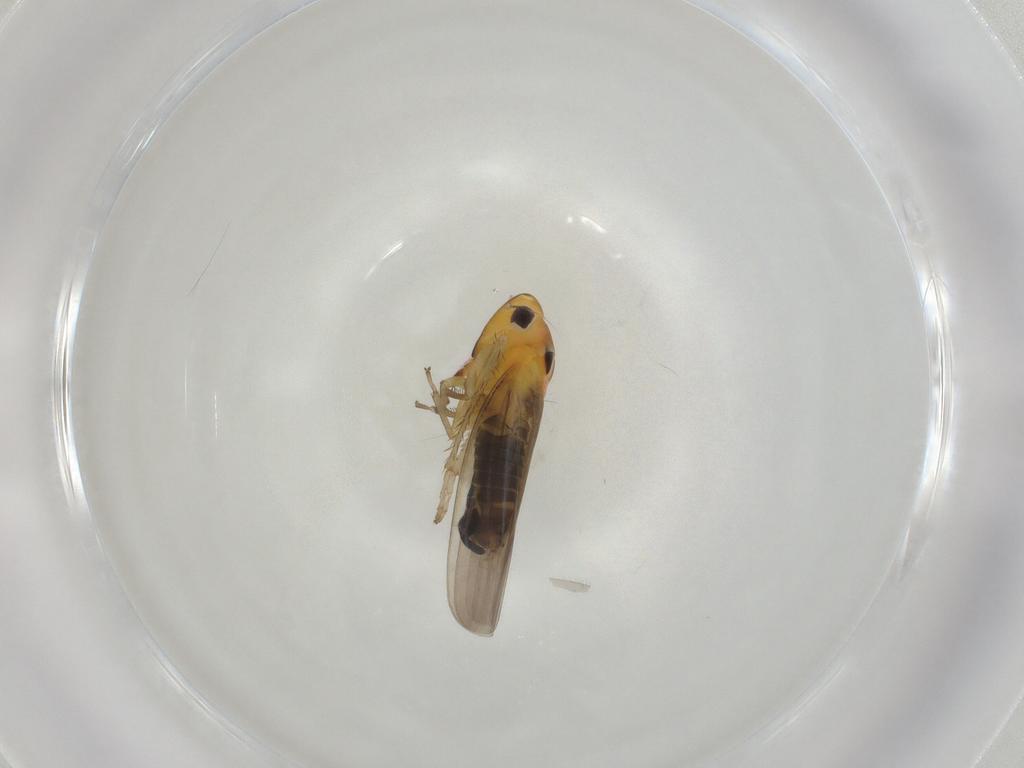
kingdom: Animalia
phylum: Arthropoda
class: Insecta
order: Hemiptera
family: Cicadellidae
